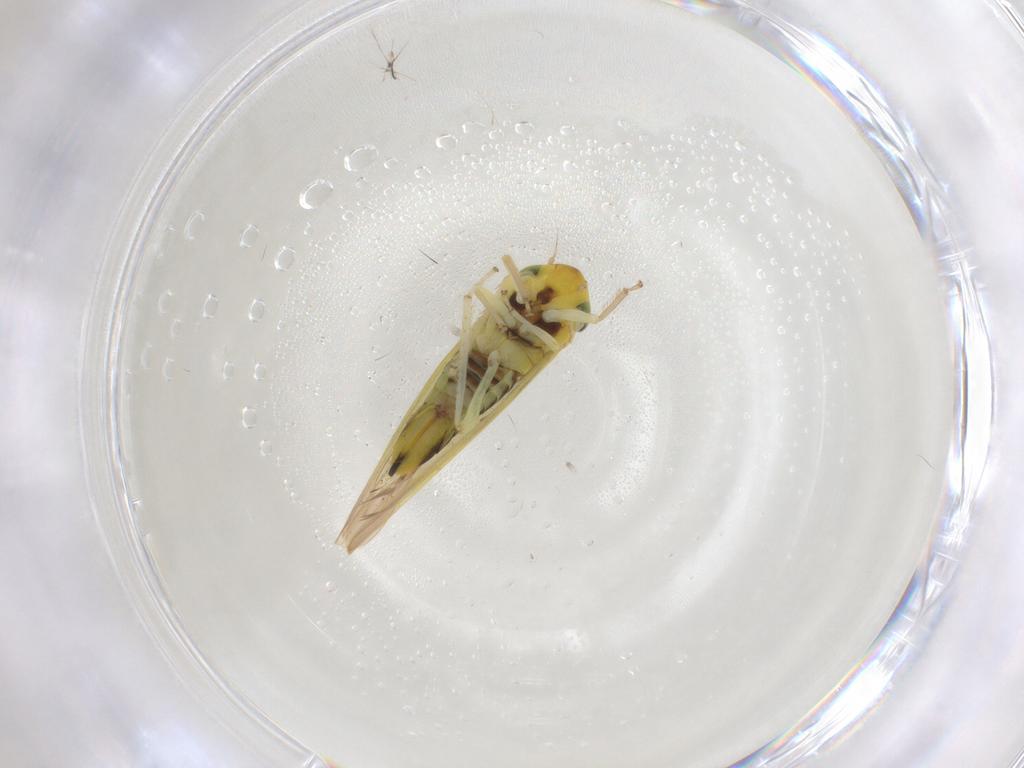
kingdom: Animalia
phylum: Arthropoda
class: Insecta
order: Hemiptera
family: Cicadellidae
